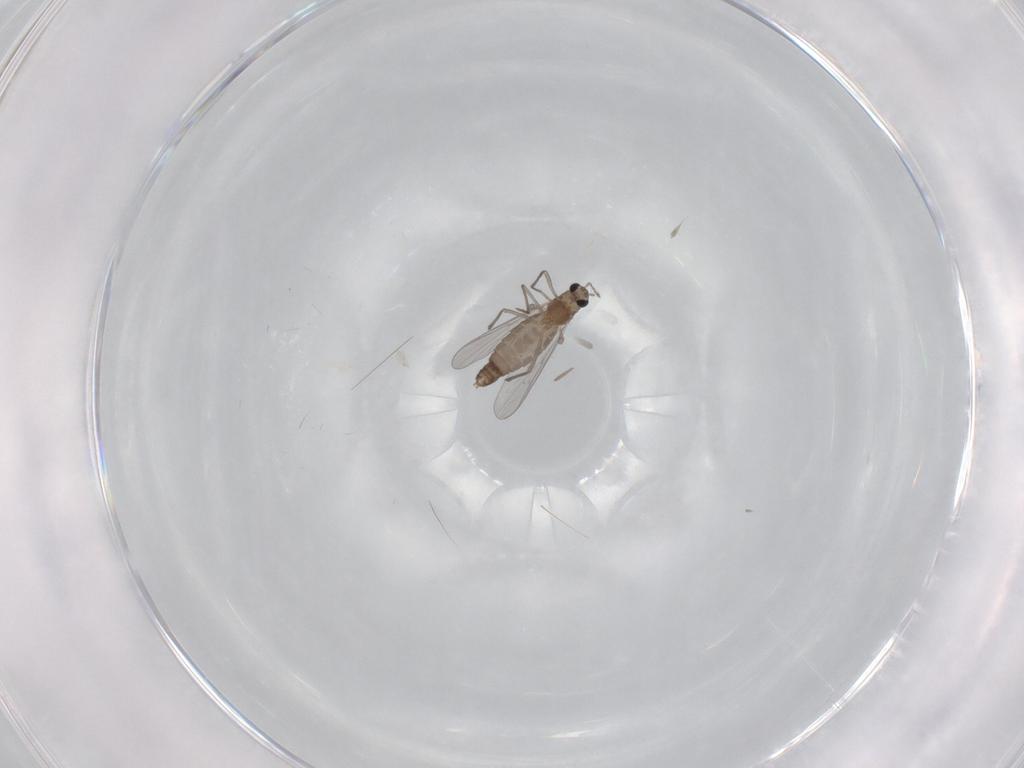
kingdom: Animalia
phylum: Arthropoda
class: Insecta
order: Diptera
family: Chironomidae
